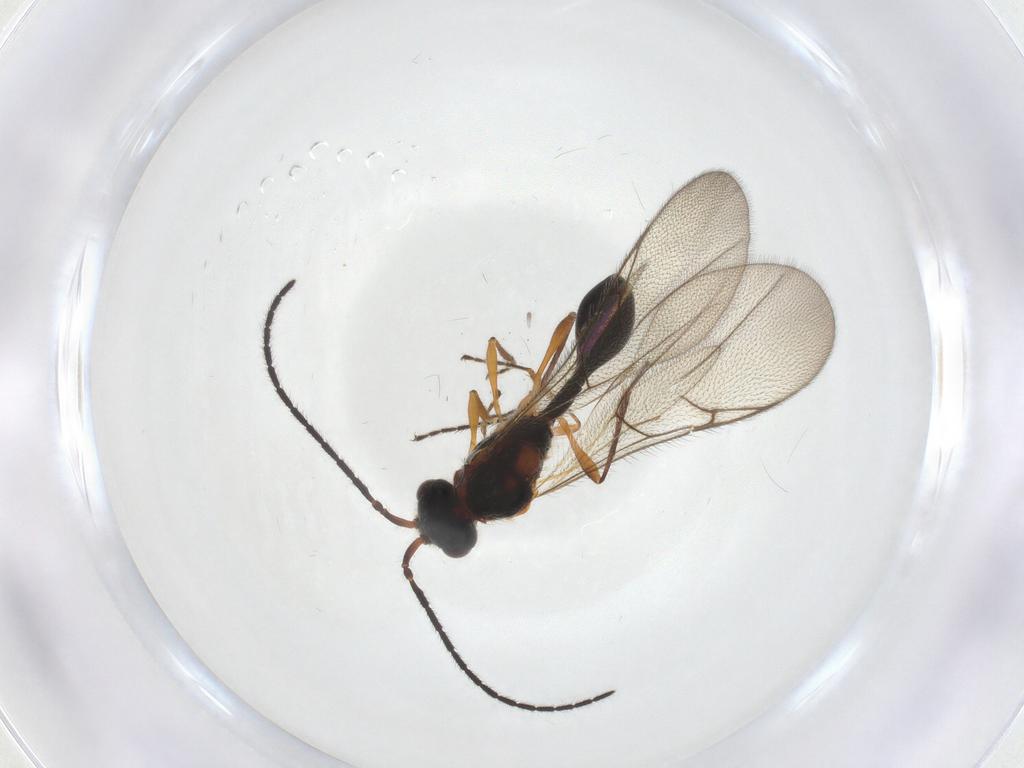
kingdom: Animalia
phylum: Arthropoda
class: Insecta
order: Hymenoptera
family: Diapriidae
